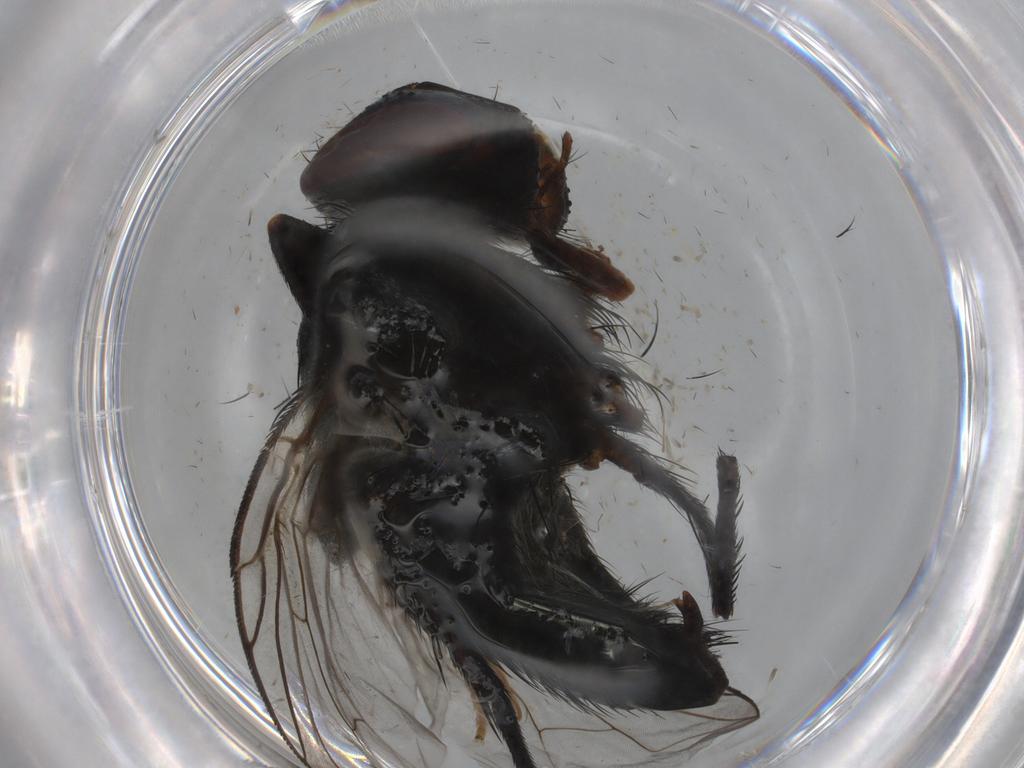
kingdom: Animalia
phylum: Arthropoda
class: Insecta
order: Diptera
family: Tachinidae
